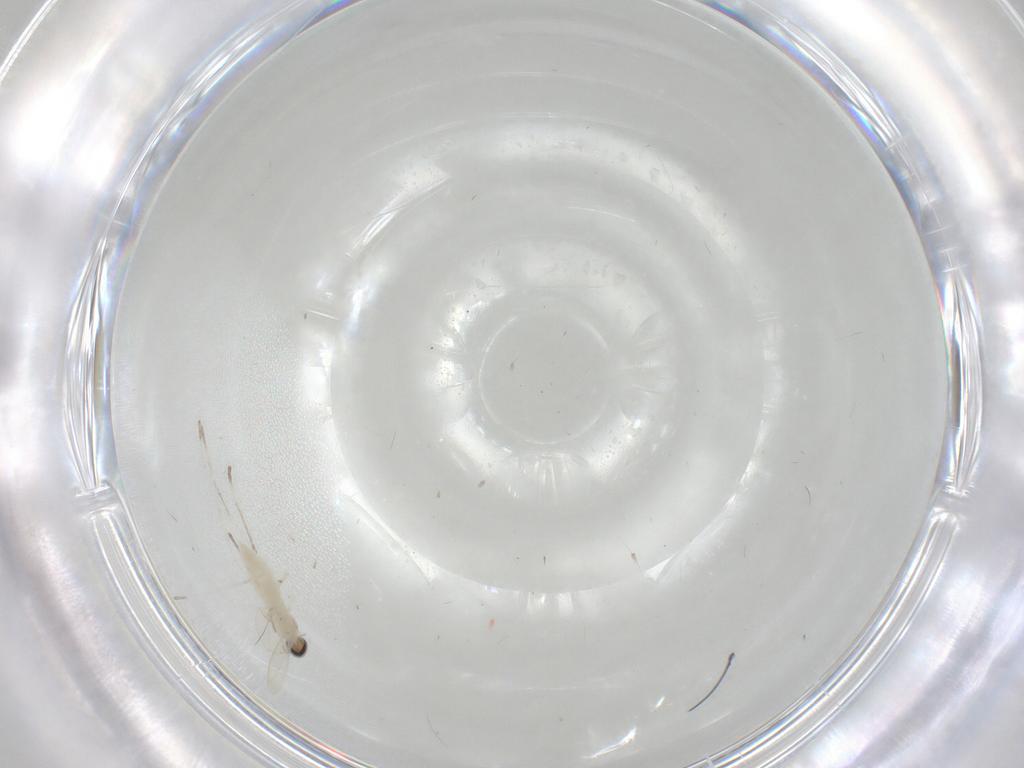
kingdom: Animalia
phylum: Arthropoda
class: Insecta
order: Diptera
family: Cecidomyiidae
